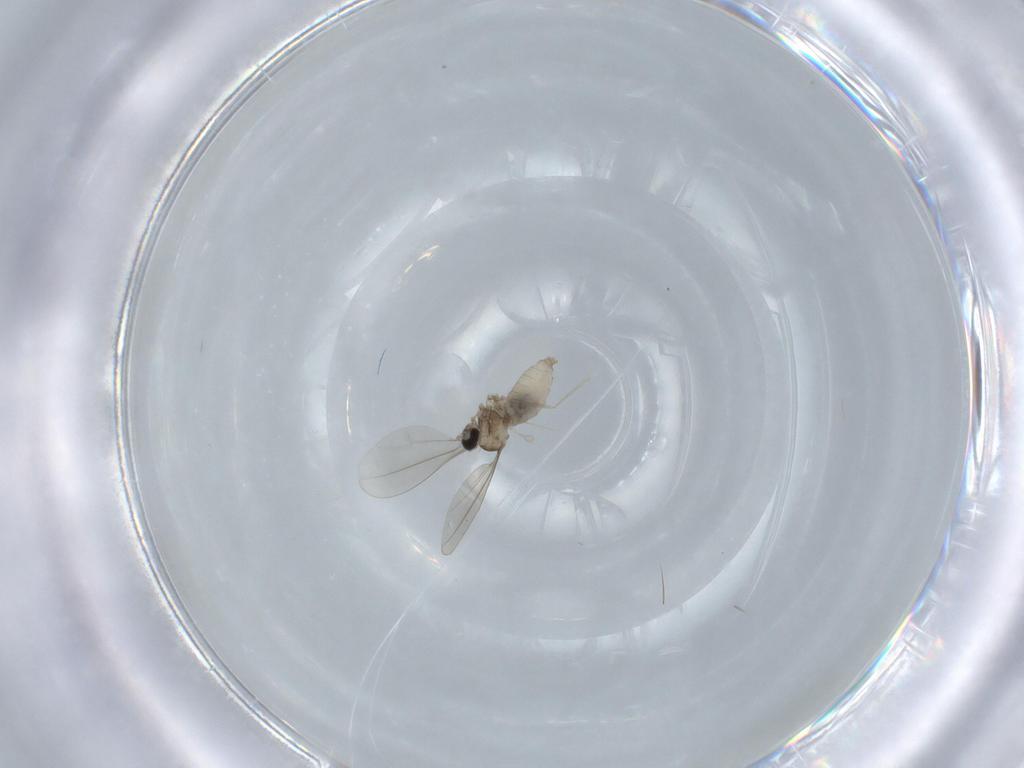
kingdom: Animalia
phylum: Arthropoda
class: Insecta
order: Diptera
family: Cecidomyiidae
